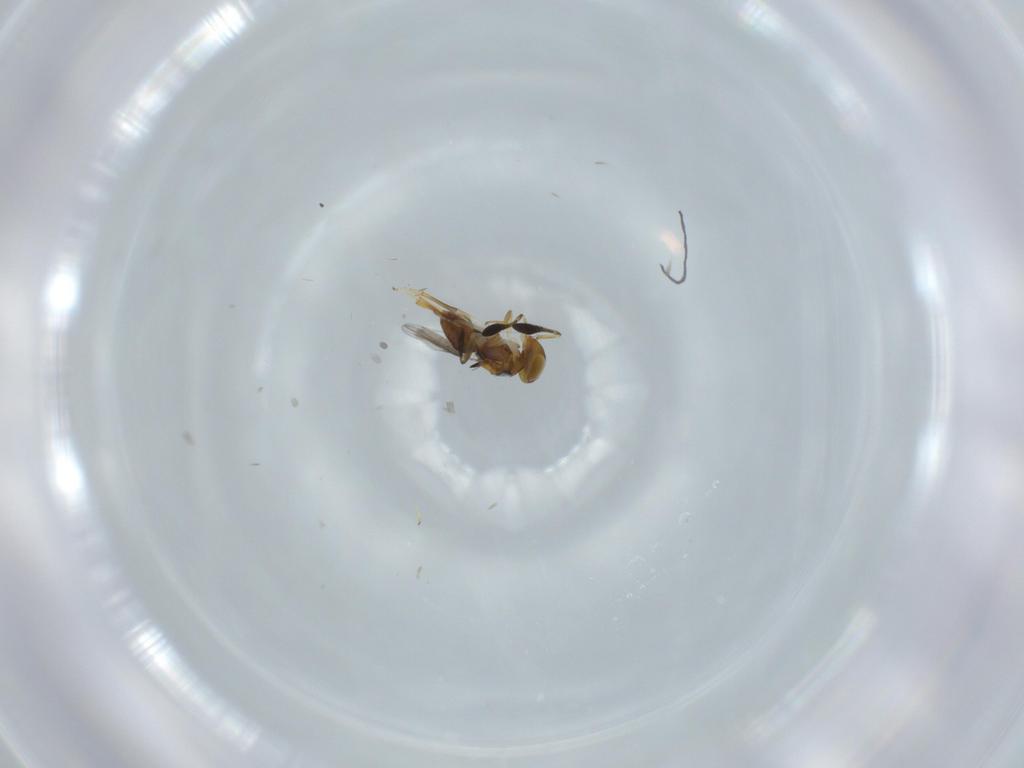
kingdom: Animalia
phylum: Arthropoda
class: Insecta
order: Hymenoptera
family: Encyrtidae
